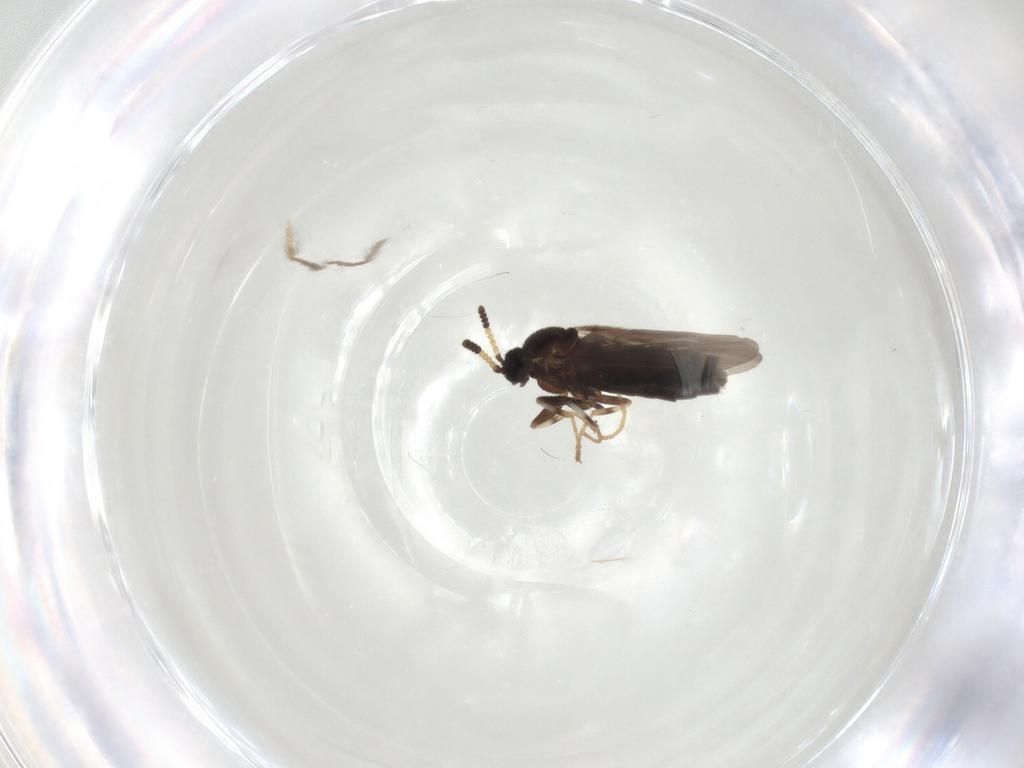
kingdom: Animalia
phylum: Arthropoda
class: Insecta
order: Diptera
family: Scatopsidae
